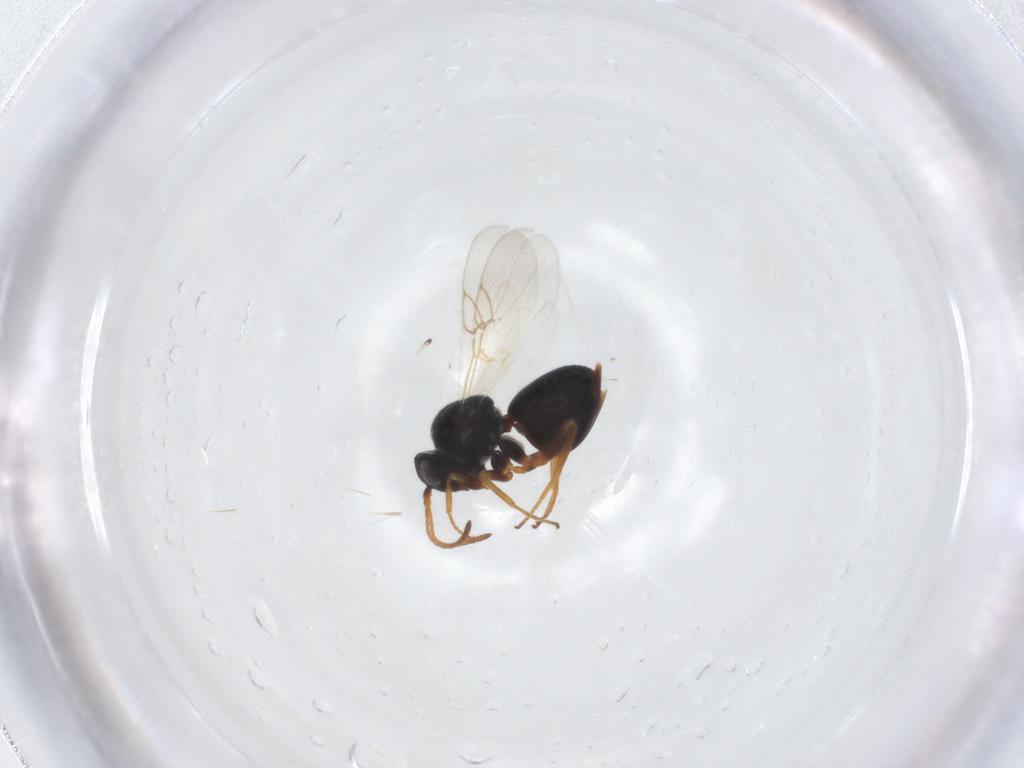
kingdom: Animalia
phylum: Arthropoda
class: Insecta
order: Hymenoptera
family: Cynipidae
